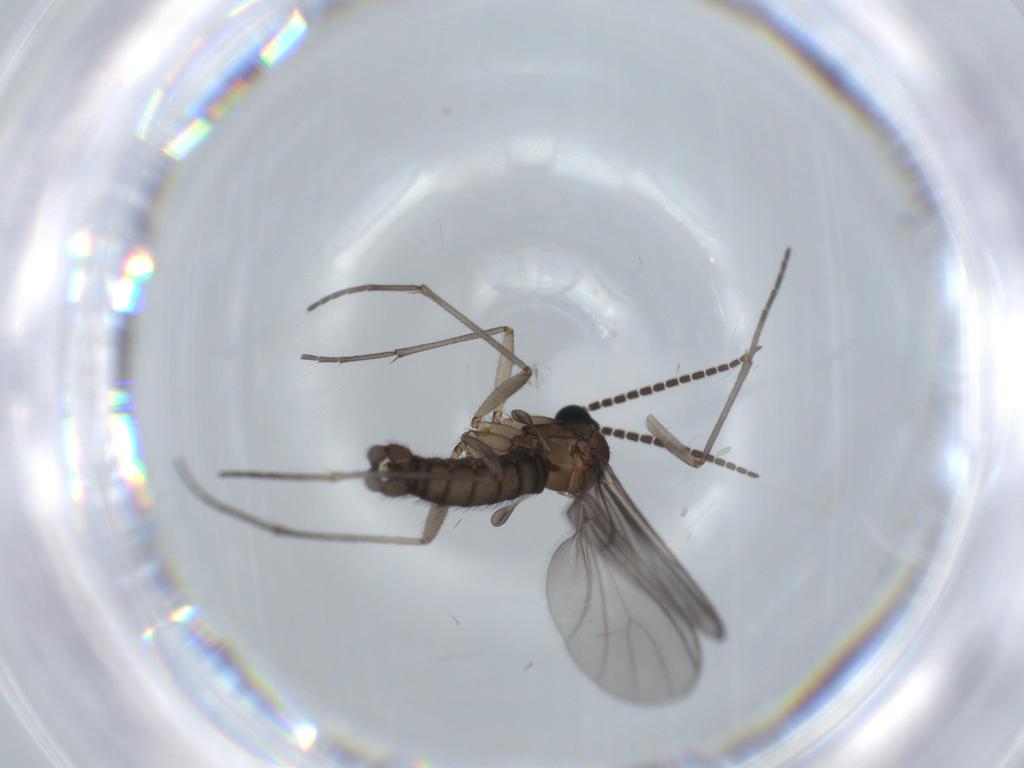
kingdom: Animalia
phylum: Arthropoda
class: Insecta
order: Diptera
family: Sciaridae
